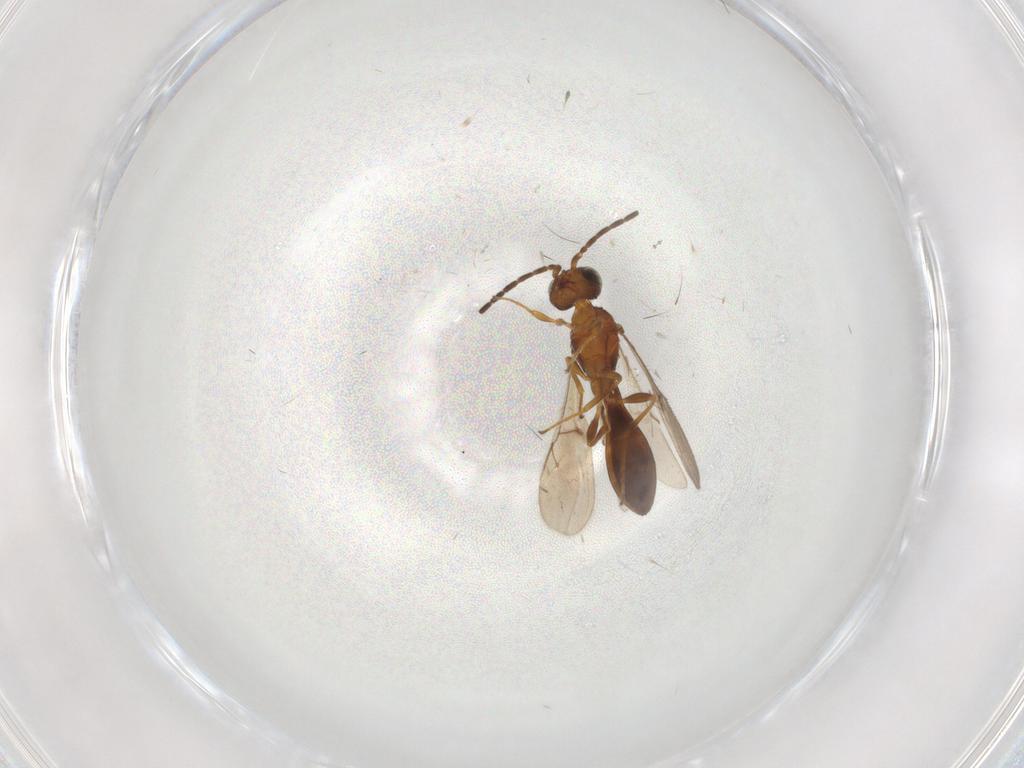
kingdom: Animalia
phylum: Arthropoda
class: Insecta
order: Hymenoptera
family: Scelionidae
